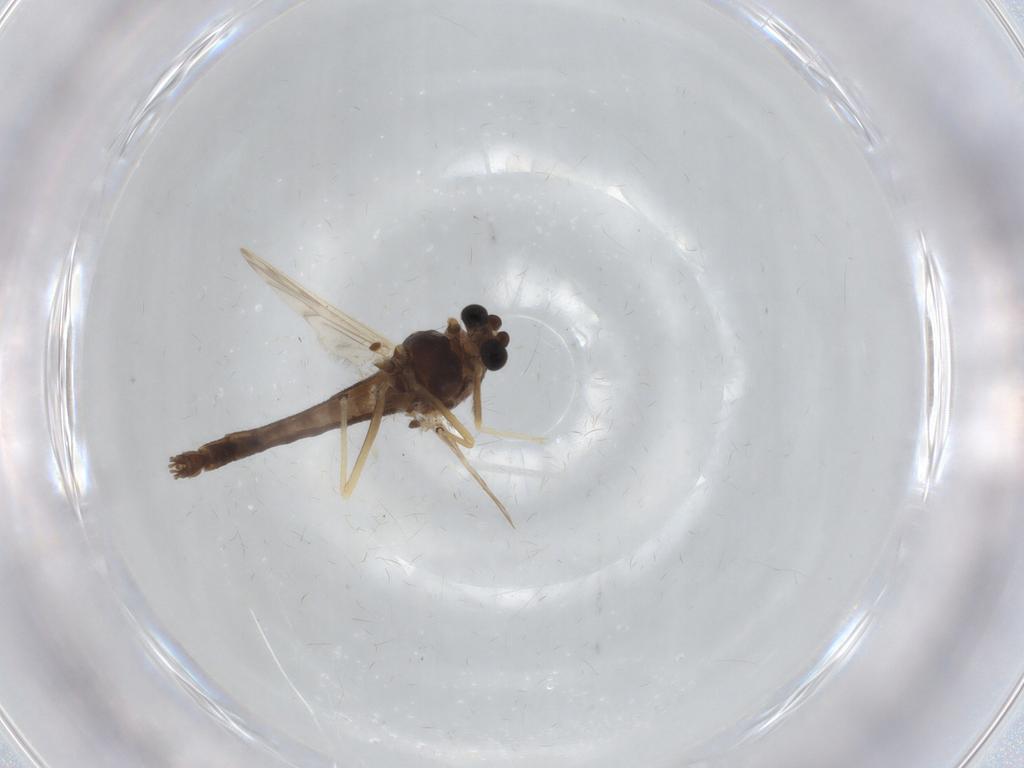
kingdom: Animalia
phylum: Arthropoda
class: Insecta
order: Diptera
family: Chironomidae
